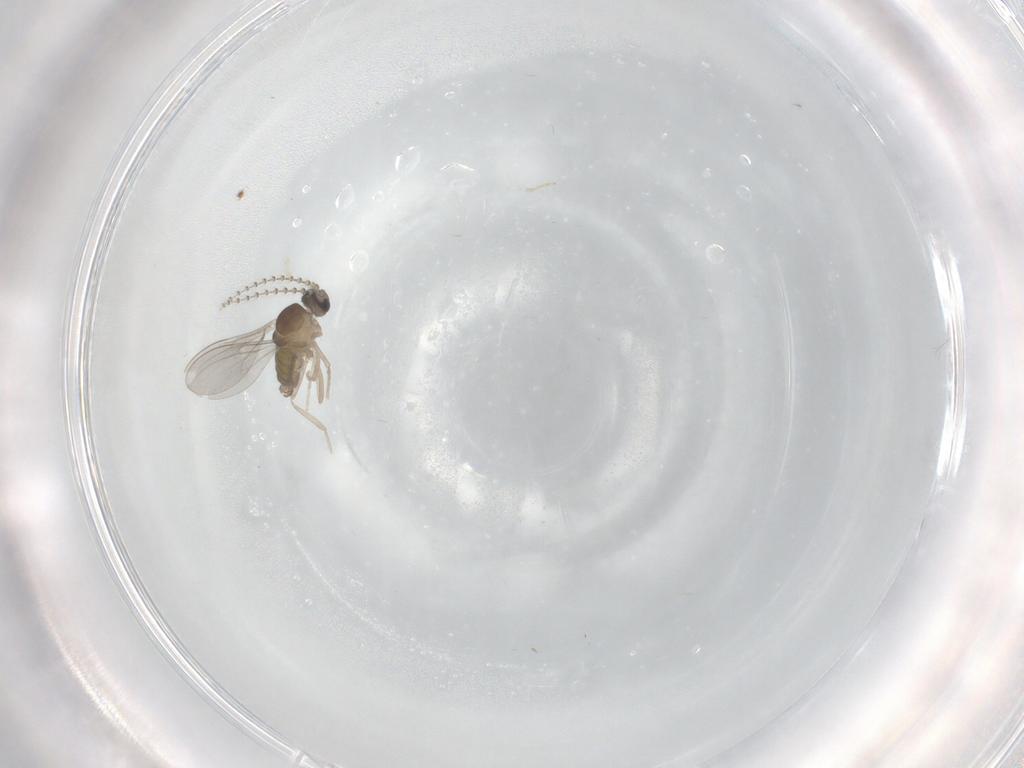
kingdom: Animalia
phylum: Arthropoda
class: Insecta
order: Diptera
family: Cecidomyiidae
